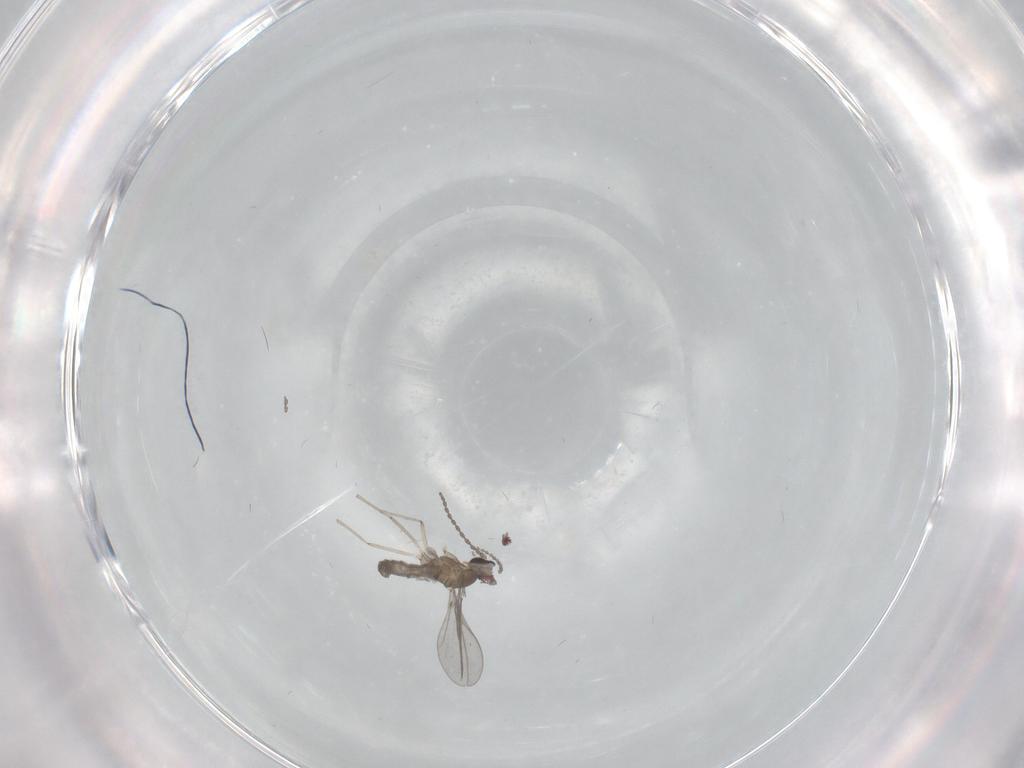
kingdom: Animalia
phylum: Arthropoda
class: Insecta
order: Diptera
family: Cecidomyiidae
